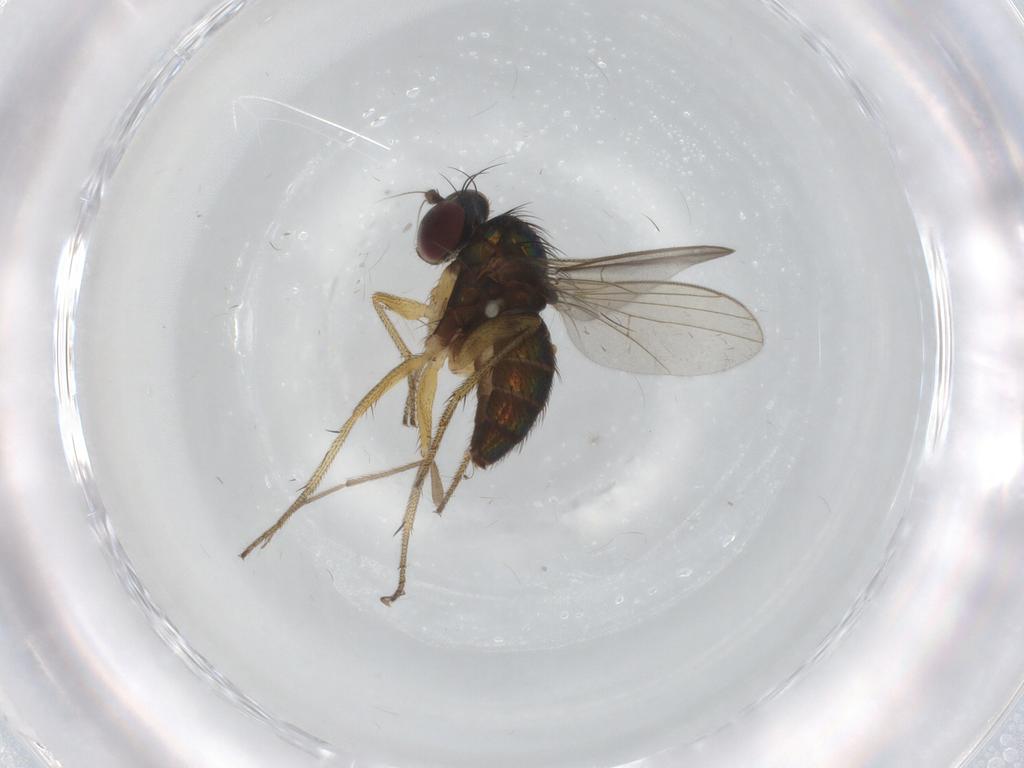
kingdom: Animalia
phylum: Arthropoda
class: Insecta
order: Diptera
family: Chironomidae
